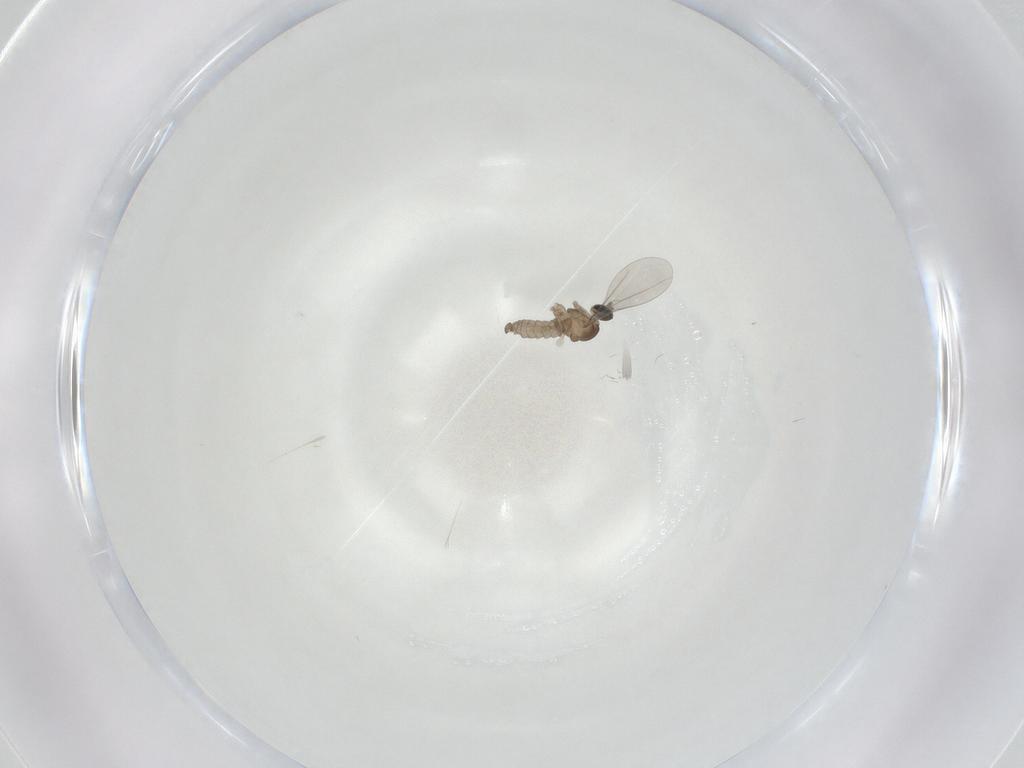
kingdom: Animalia
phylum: Arthropoda
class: Insecta
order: Diptera
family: Cecidomyiidae
